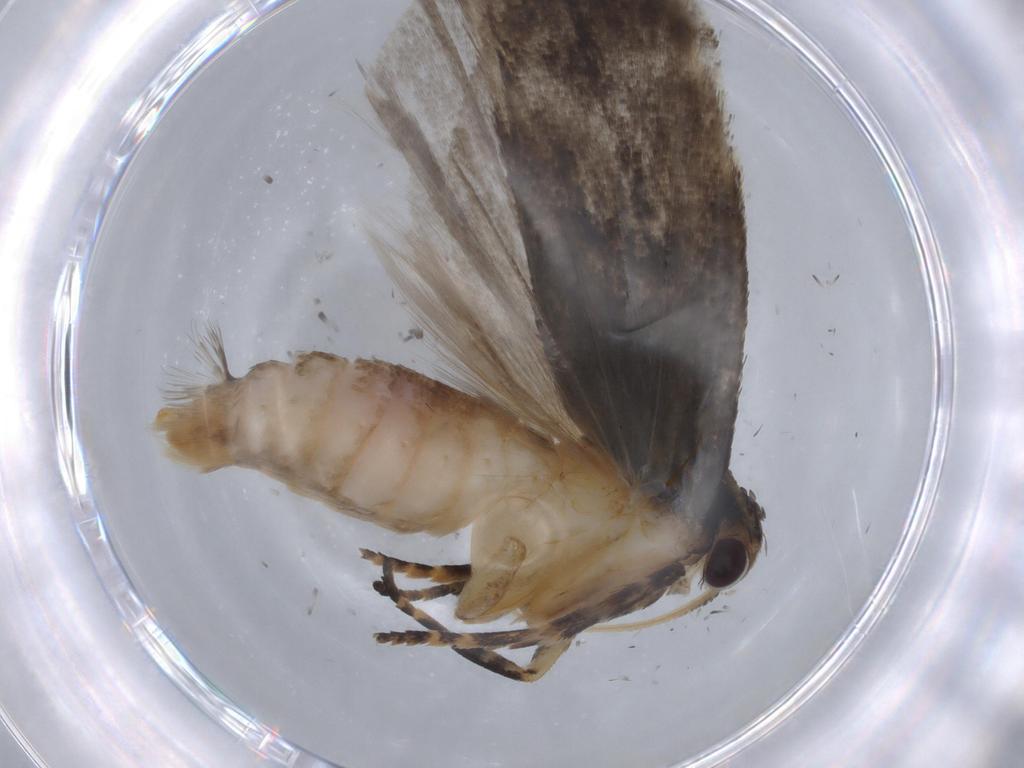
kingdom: Animalia
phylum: Arthropoda
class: Insecta
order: Lepidoptera
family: Gelechiidae
